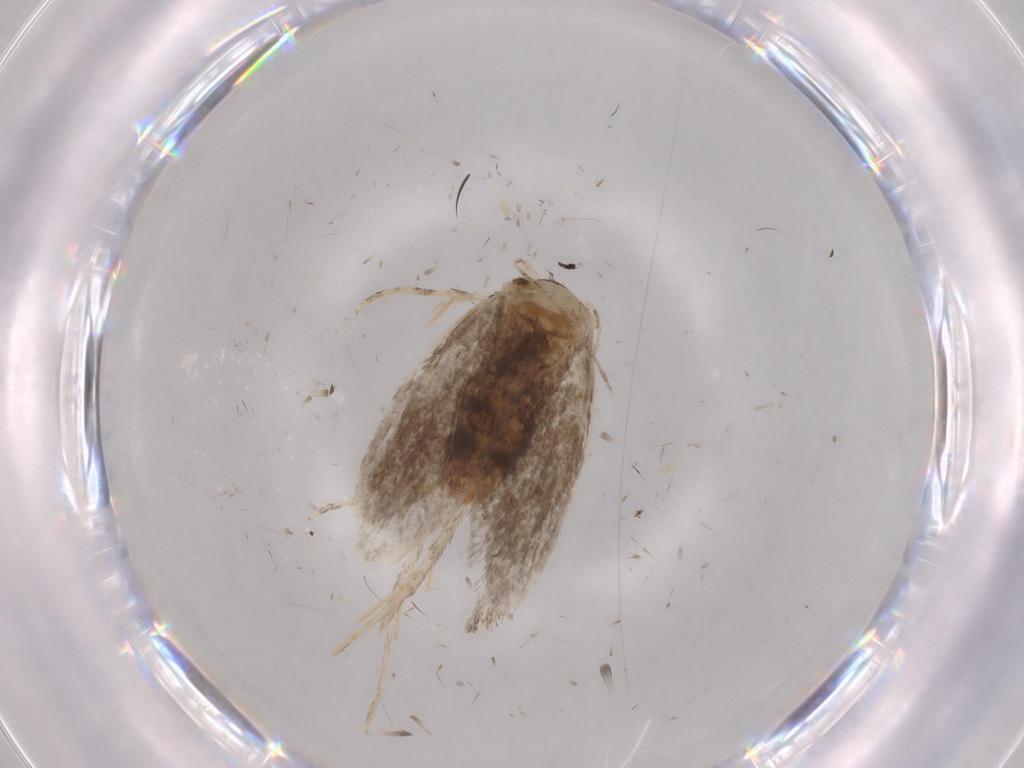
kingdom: Animalia
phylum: Arthropoda
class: Insecta
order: Lepidoptera
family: Tineidae
